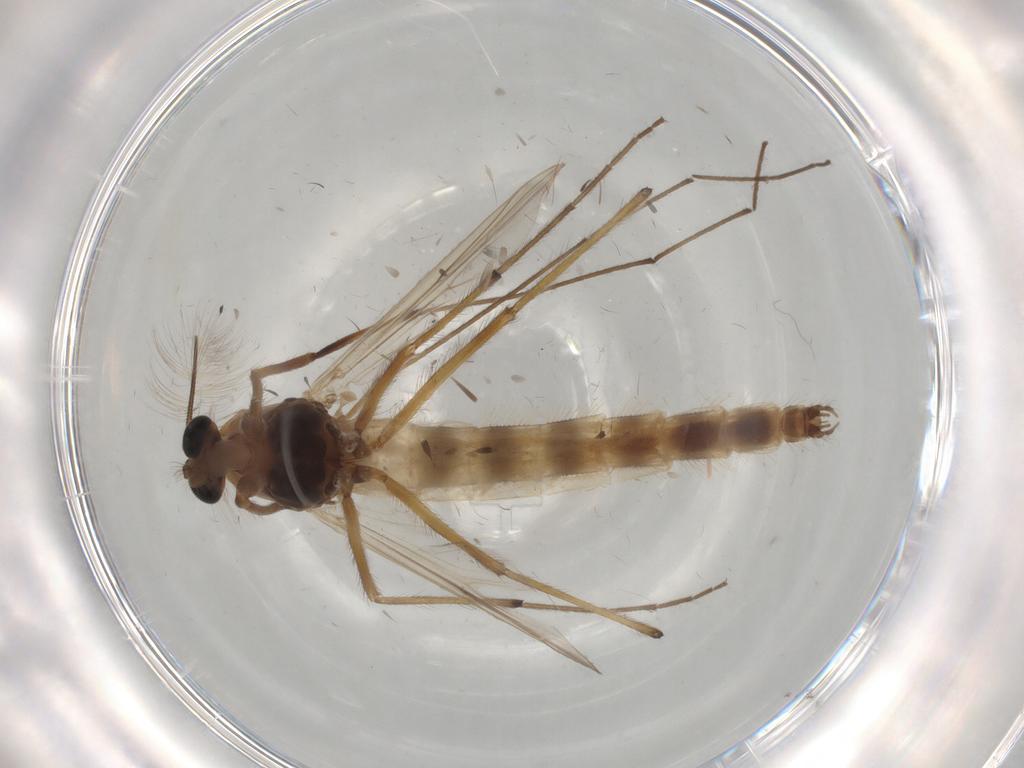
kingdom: Animalia
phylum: Arthropoda
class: Insecta
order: Diptera
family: Chironomidae
